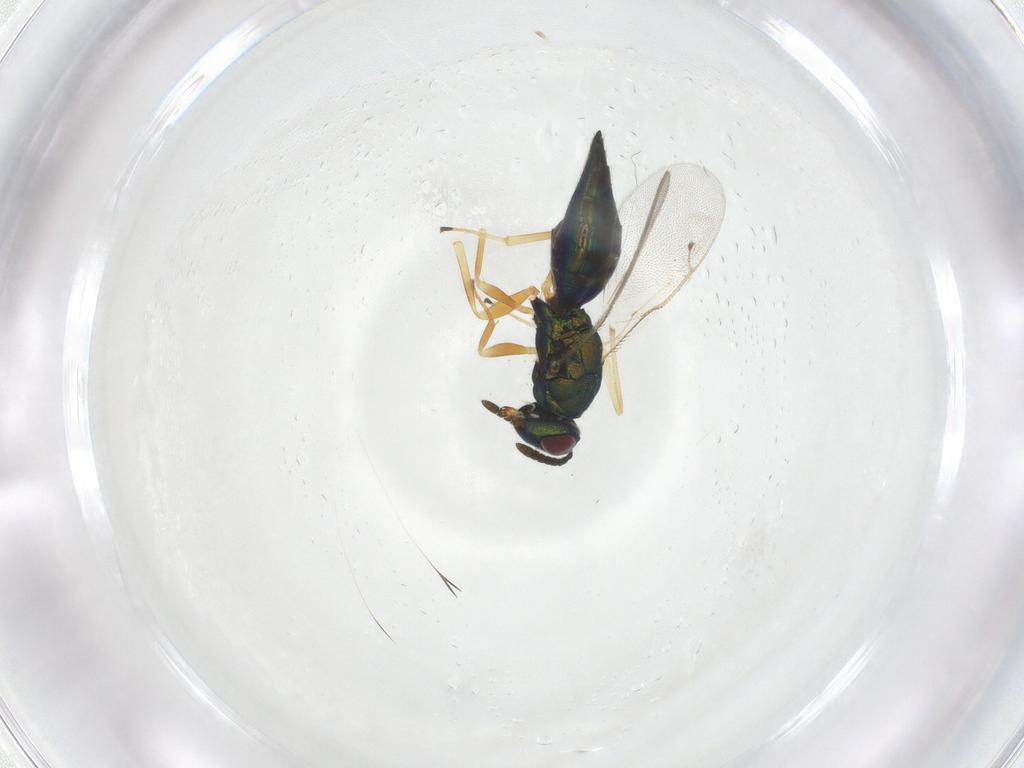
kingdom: Animalia
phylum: Arthropoda
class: Insecta
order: Hymenoptera
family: Pteromalidae
